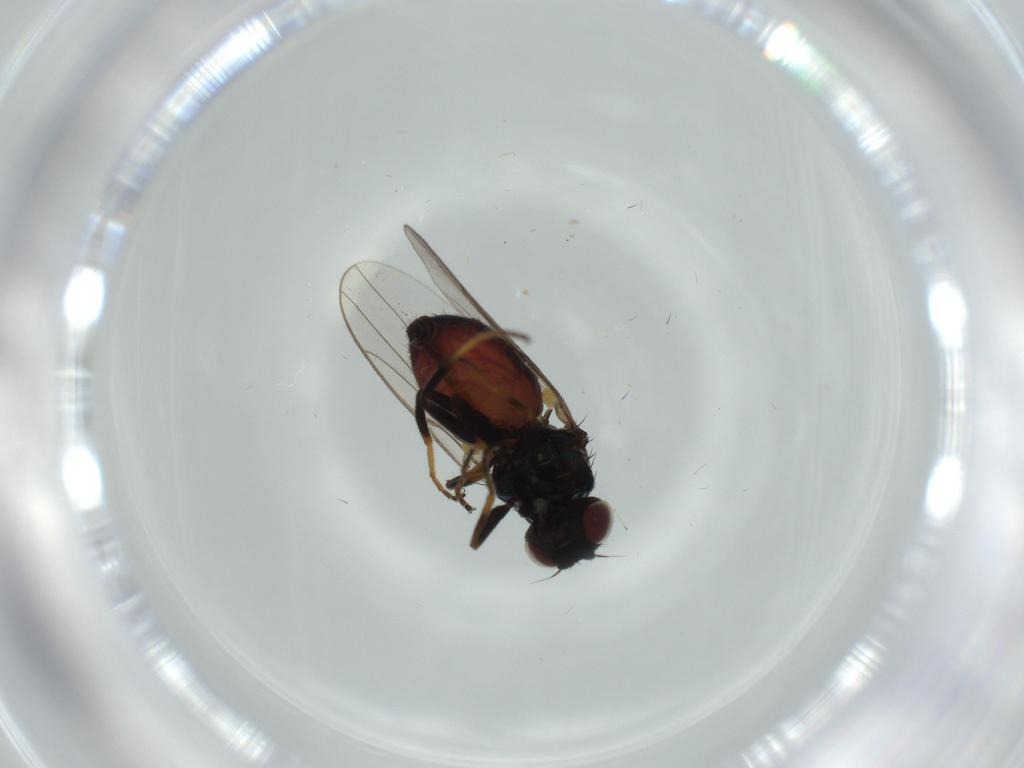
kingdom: Animalia
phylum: Arthropoda
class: Insecta
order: Diptera
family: Chloropidae
